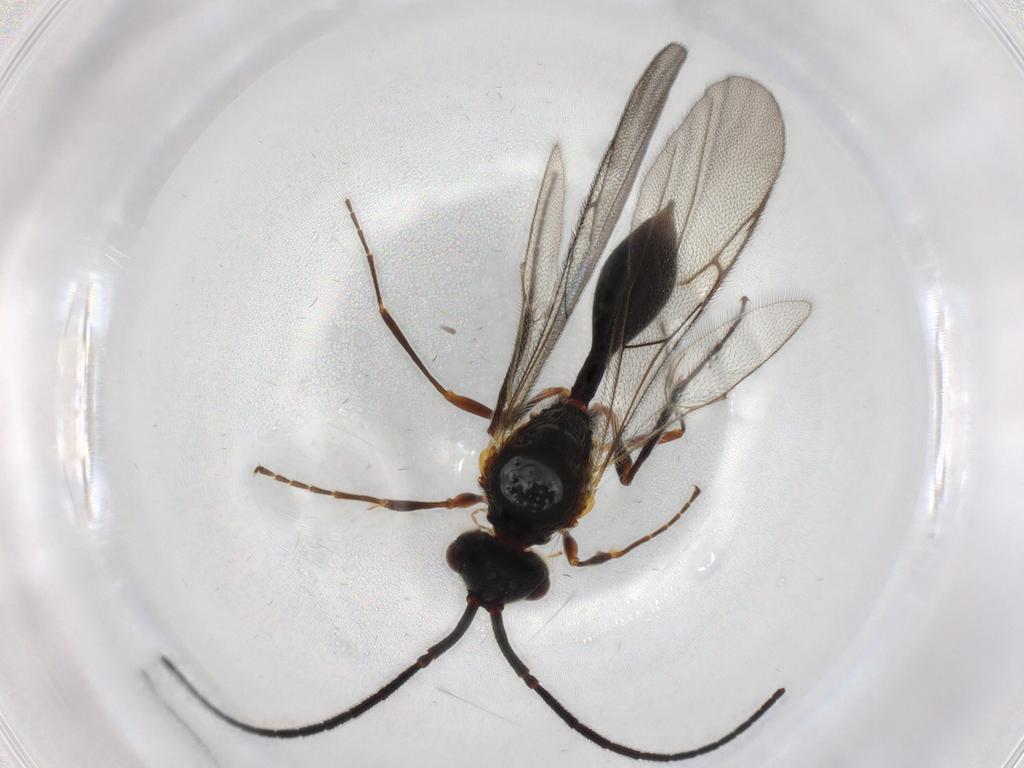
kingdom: Animalia
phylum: Arthropoda
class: Insecta
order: Hymenoptera
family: Diapriidae
